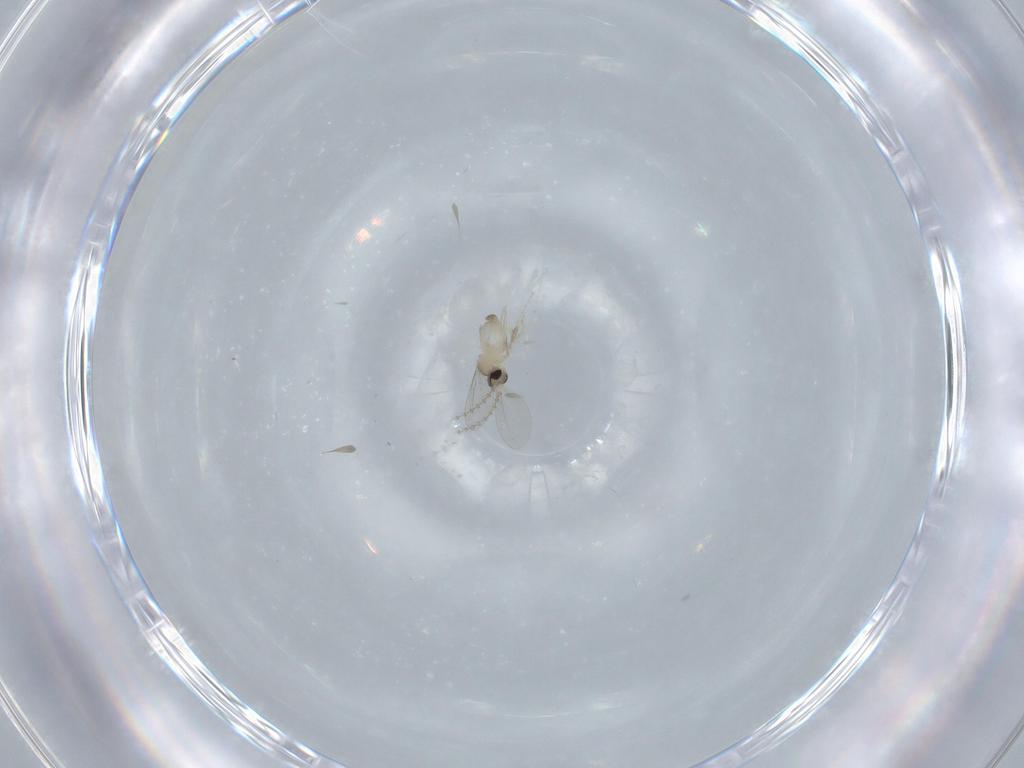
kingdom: Animalia
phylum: Arthropoda
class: Insecta
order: Diptera
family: Cecidomyiidae
